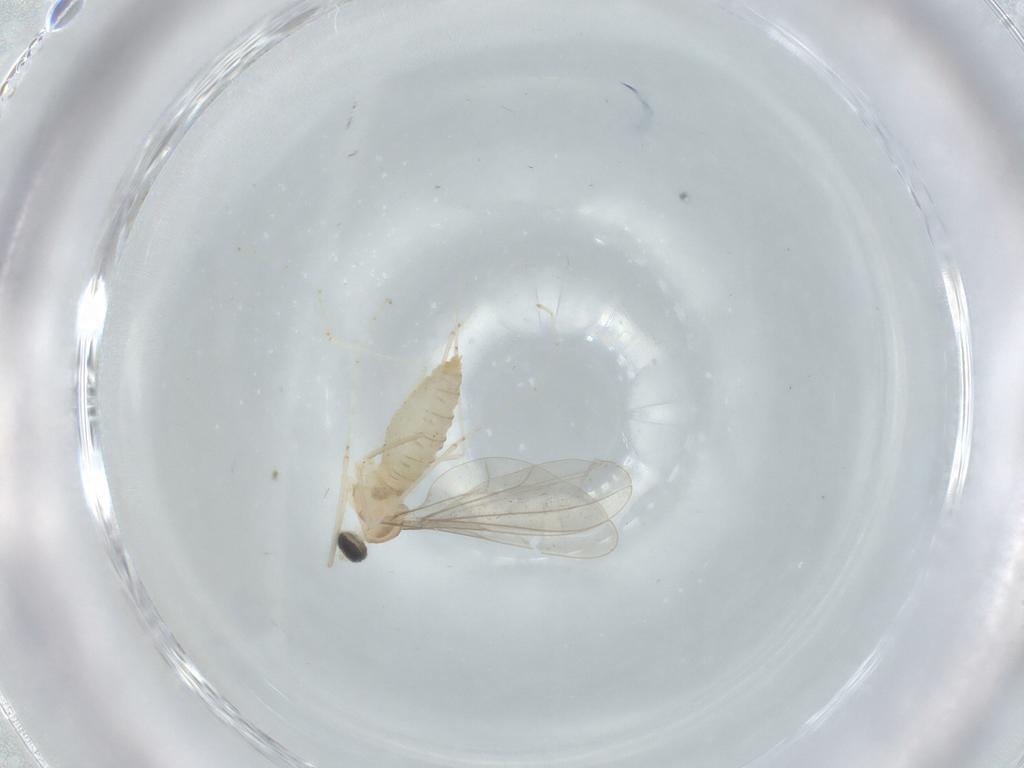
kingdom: Animalia
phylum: Arthropoda
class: Insecta
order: Diptera
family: Cecidomyiidae
